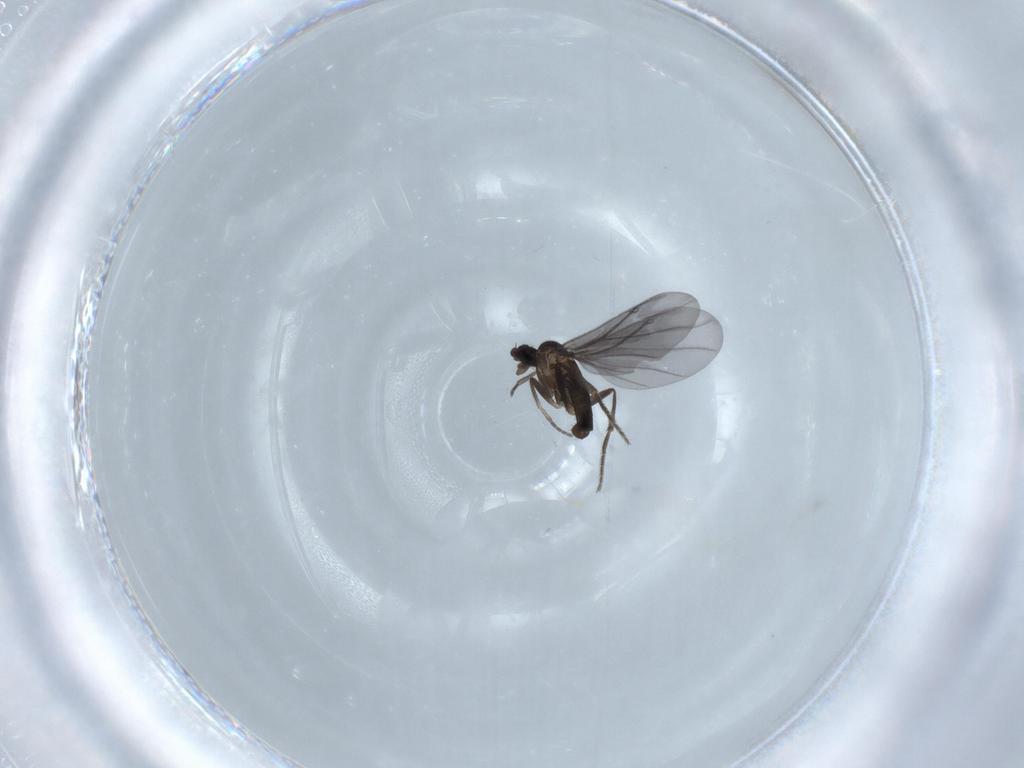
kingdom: Animalia
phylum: Arthropoda
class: Insecta
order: Diptera
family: Phoridae
